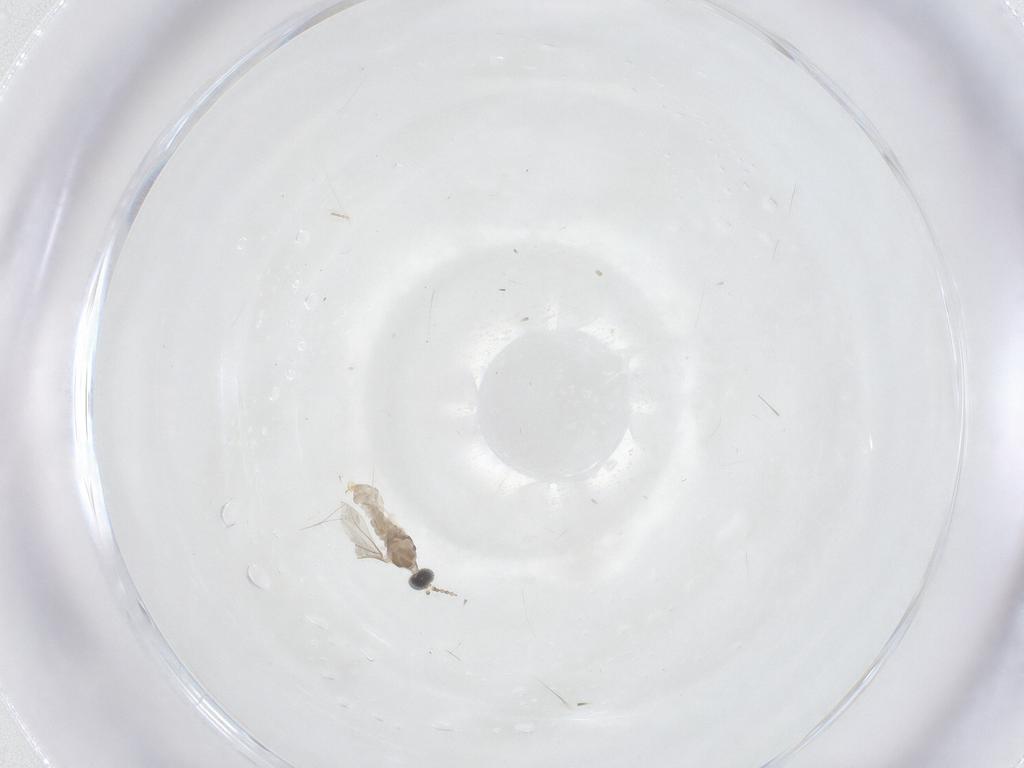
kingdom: Animalia
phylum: Arthropoda
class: Insecta
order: Diptera
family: Cecidomyiidae
